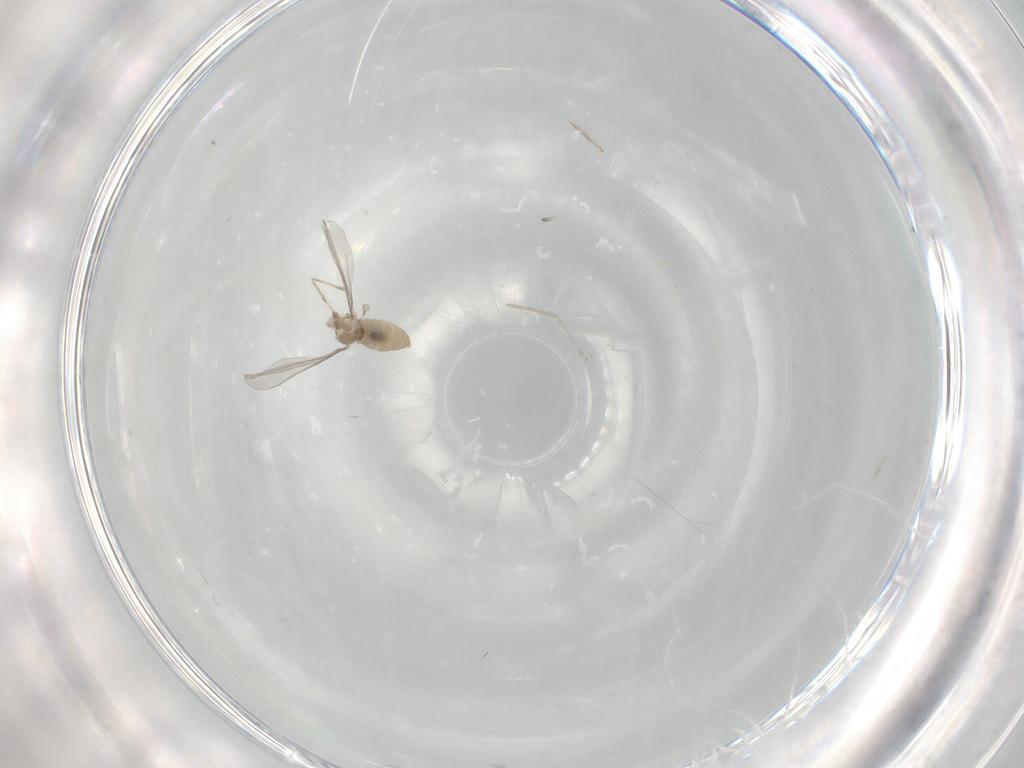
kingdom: Animalia
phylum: Arthropoda
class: Insecta
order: Diptera
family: Cecidomyiidae
